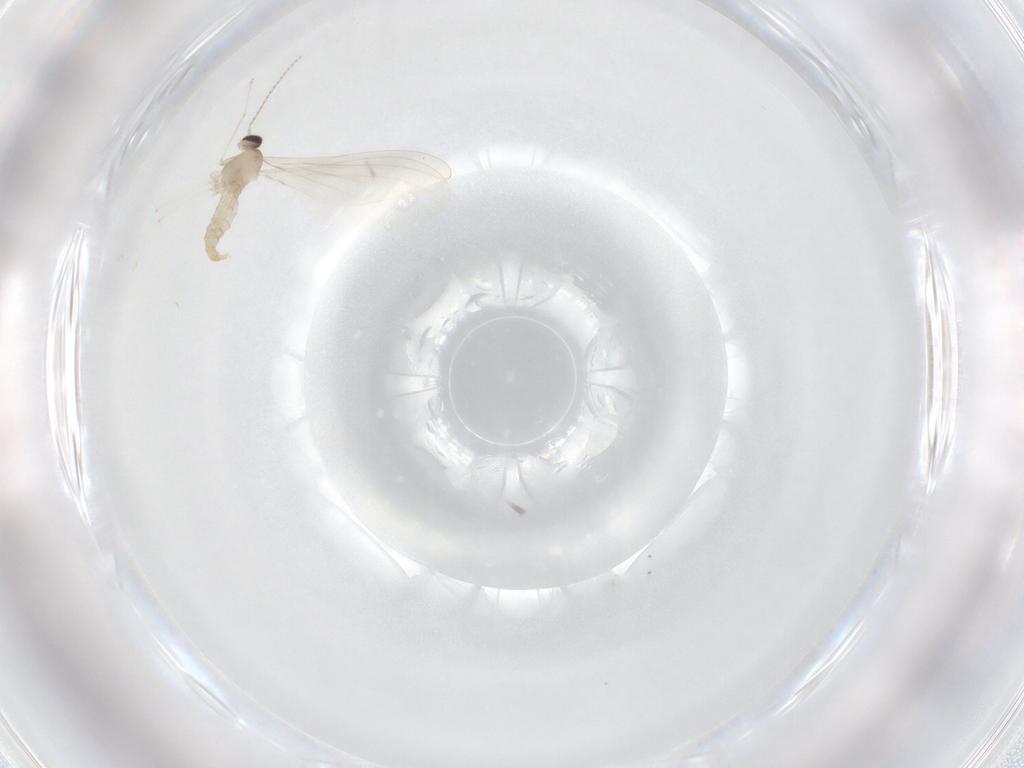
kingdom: Animalia
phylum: Arthropoda
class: Insecta
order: Diptera
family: Cecidomyiidae
